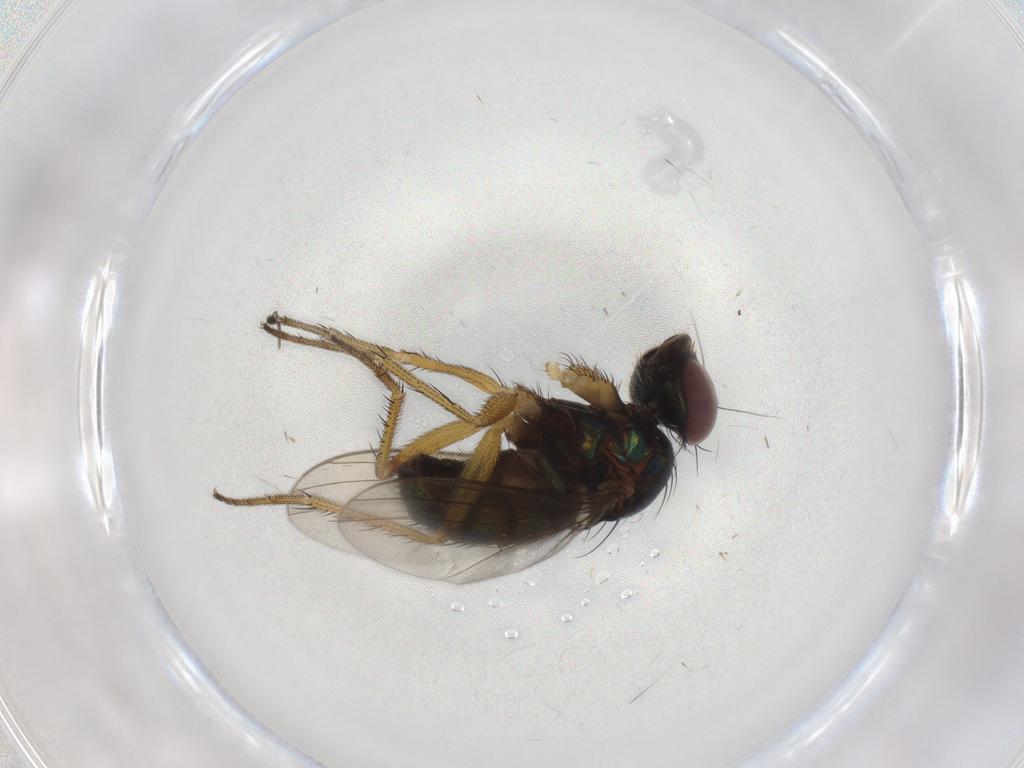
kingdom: Animalia
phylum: Arthropoda
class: Insecta
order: Diptera
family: Dolichopodidae
